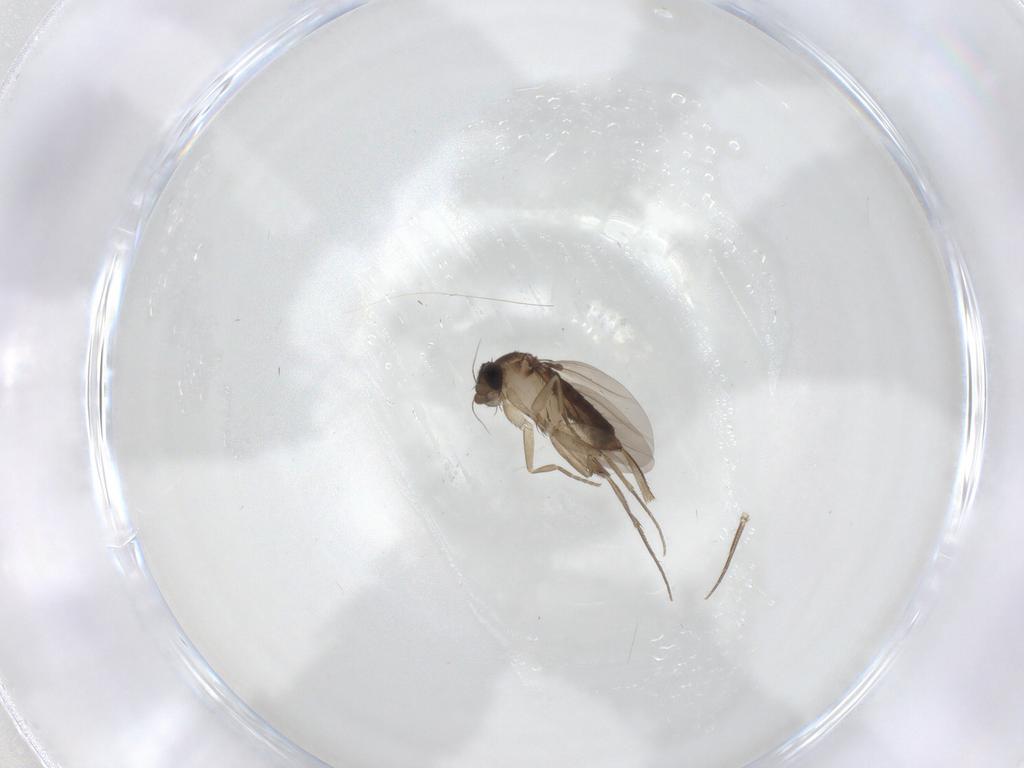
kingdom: Animalia
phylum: Arthropoda
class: Insecta
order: Diptera
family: Phoridae
